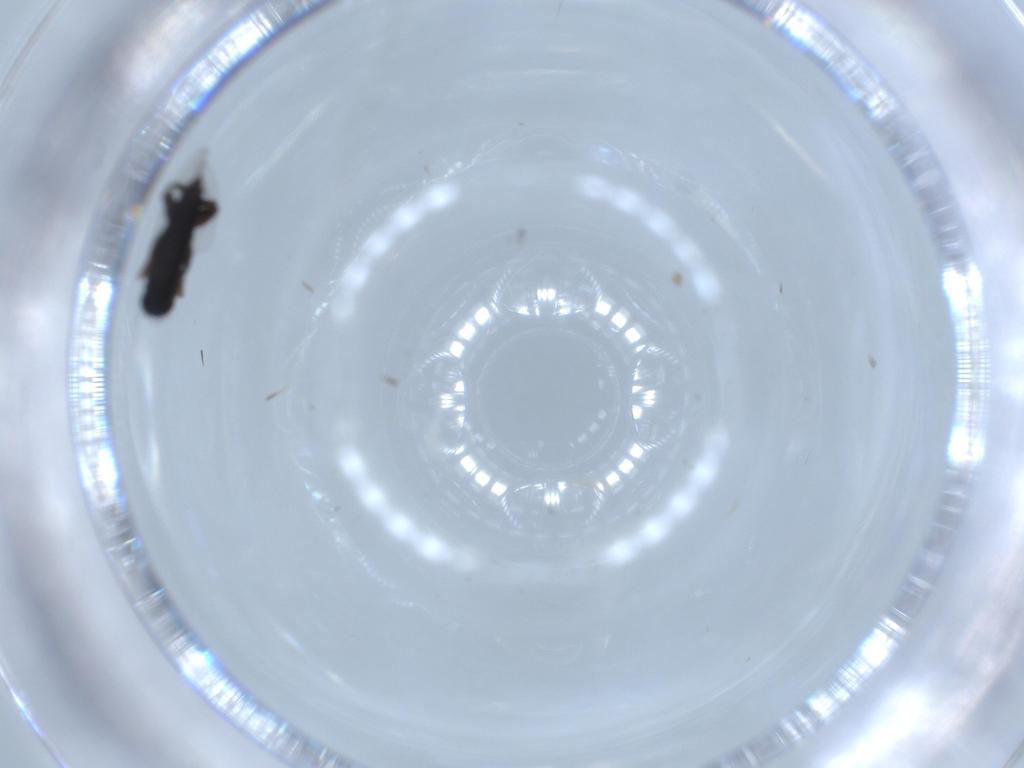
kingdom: Animalia
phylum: Arthropoda
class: Insecta
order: Diptera
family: Phoridae
